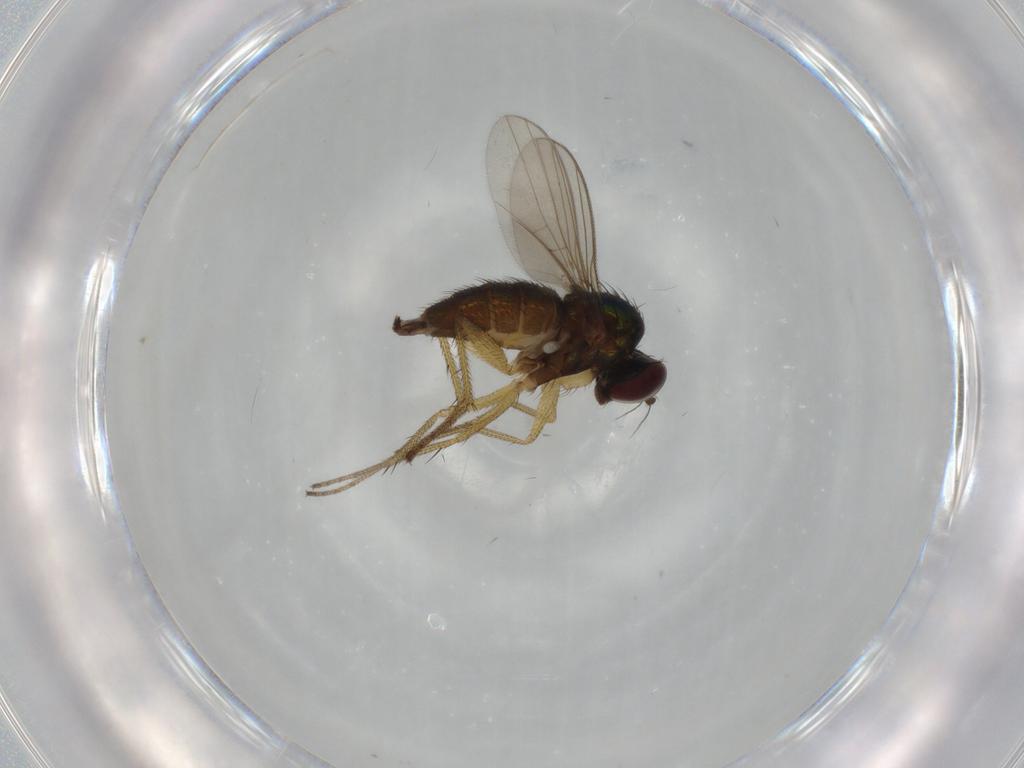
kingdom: Animalia
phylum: Arthropoda
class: Insecta
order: Diptera
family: Dolichopodidae
